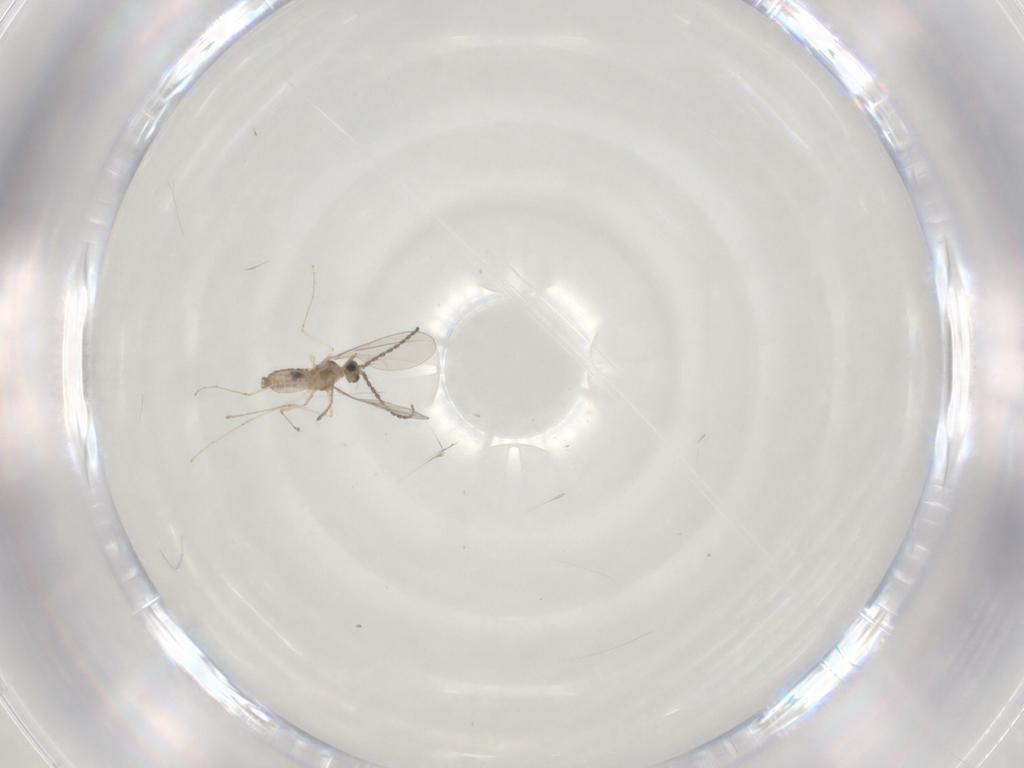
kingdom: Animalia
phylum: Arthropoda
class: Insecta
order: Diptera
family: Cecidomyiidae
